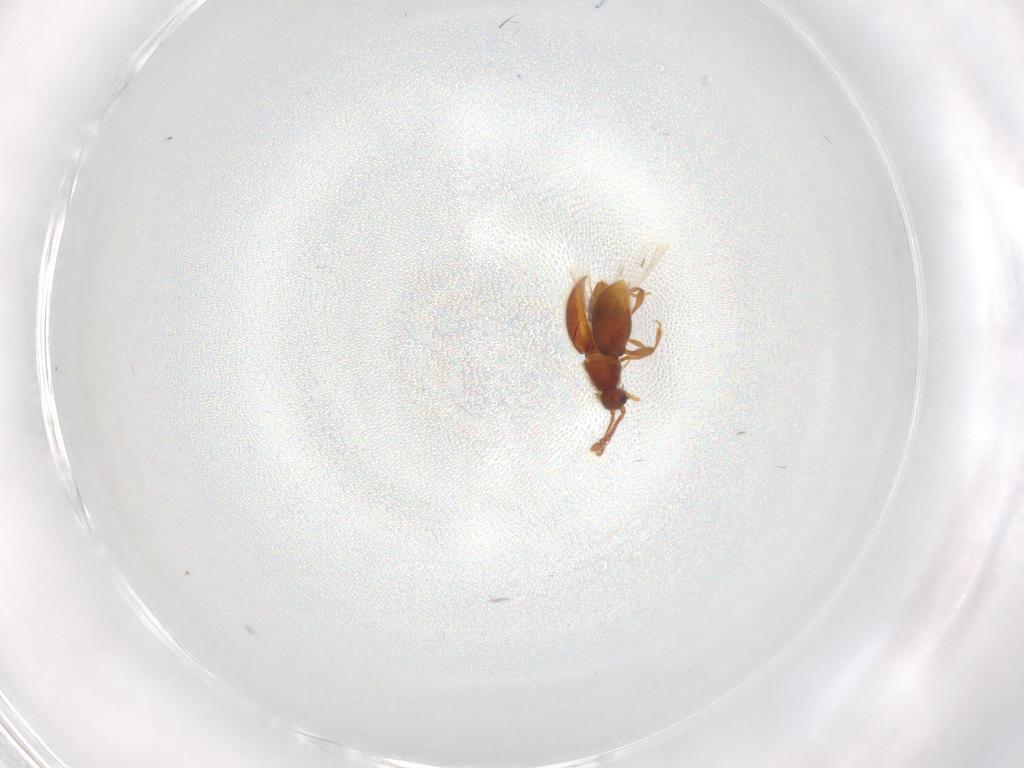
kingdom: Animalia
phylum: Arthropoda
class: Insecta
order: Coleoptera
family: Staphylinidae
